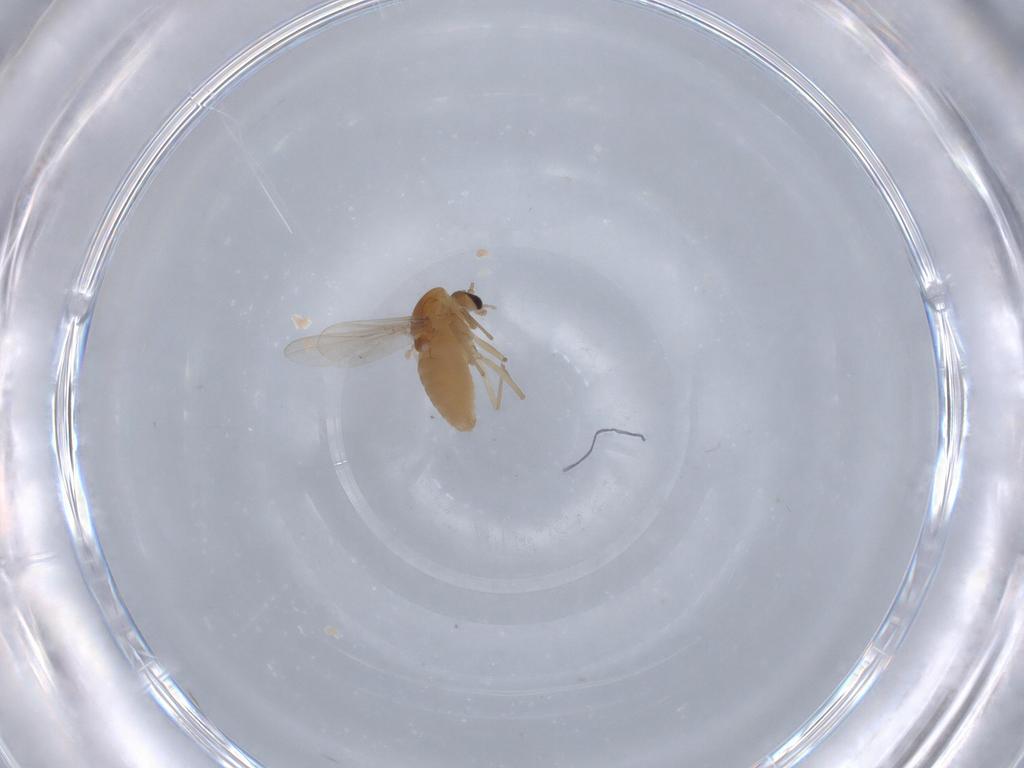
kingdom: Animalia
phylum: Arthropoda
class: Insecta
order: Diptera
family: Chironomidae
